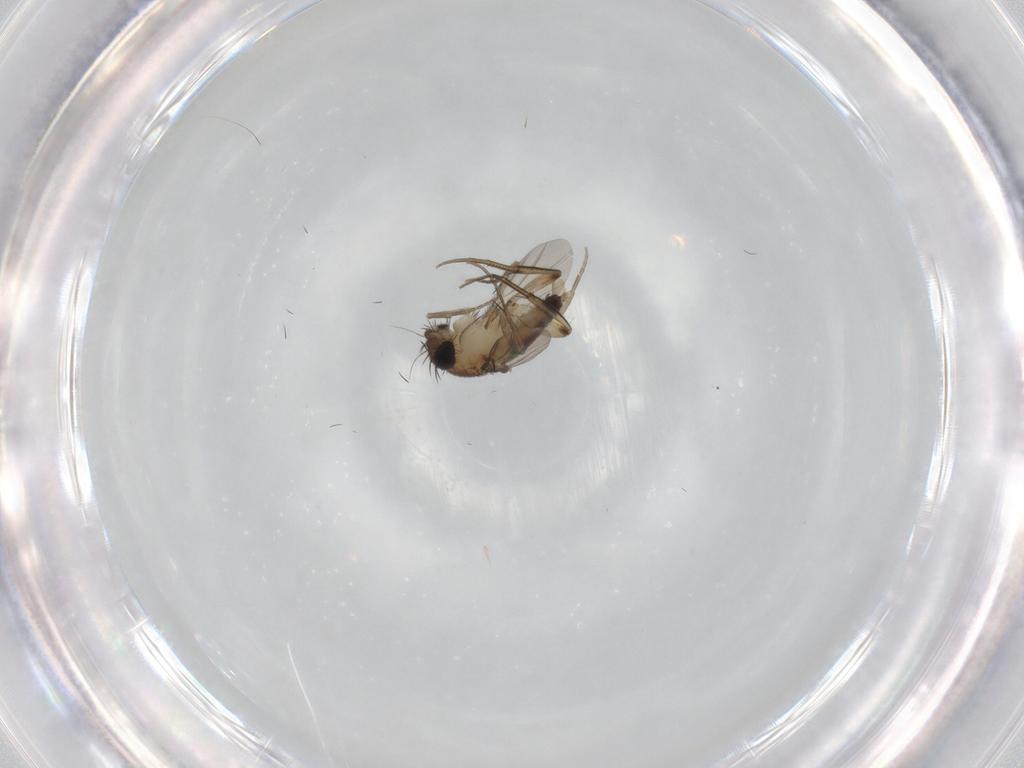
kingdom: Animalia
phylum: Arthropoda
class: Insecta
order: Diptera
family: Phoridae
